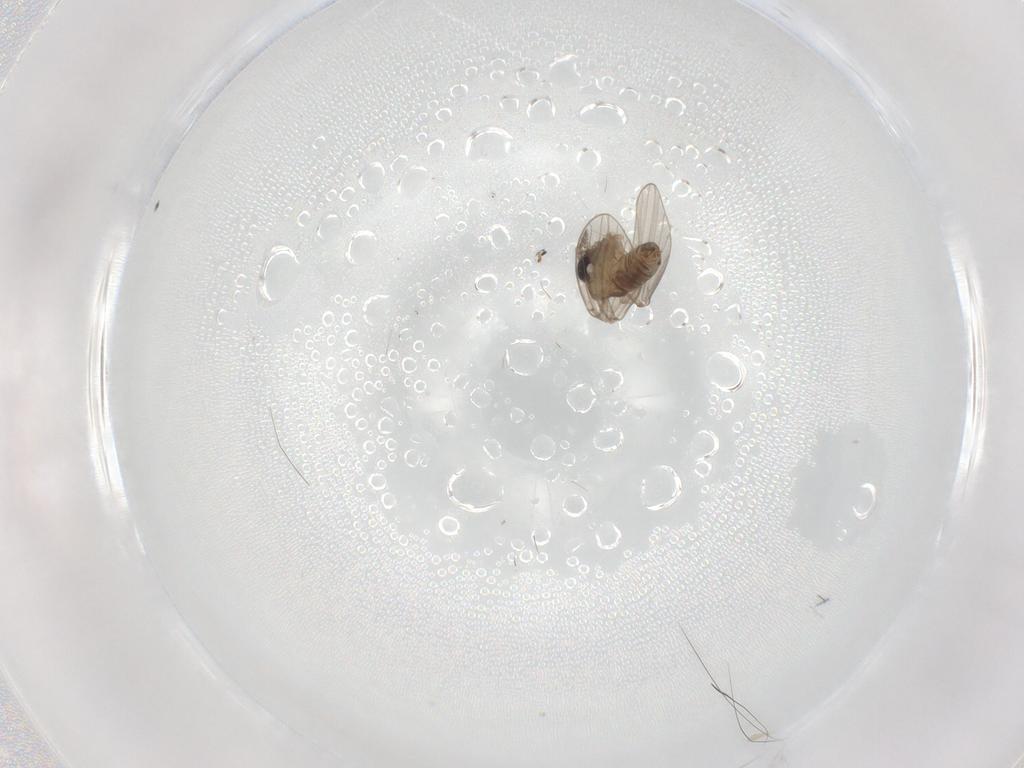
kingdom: Animalia
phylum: Arthropoda
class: Insecta
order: Diptera
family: Psychodidae
